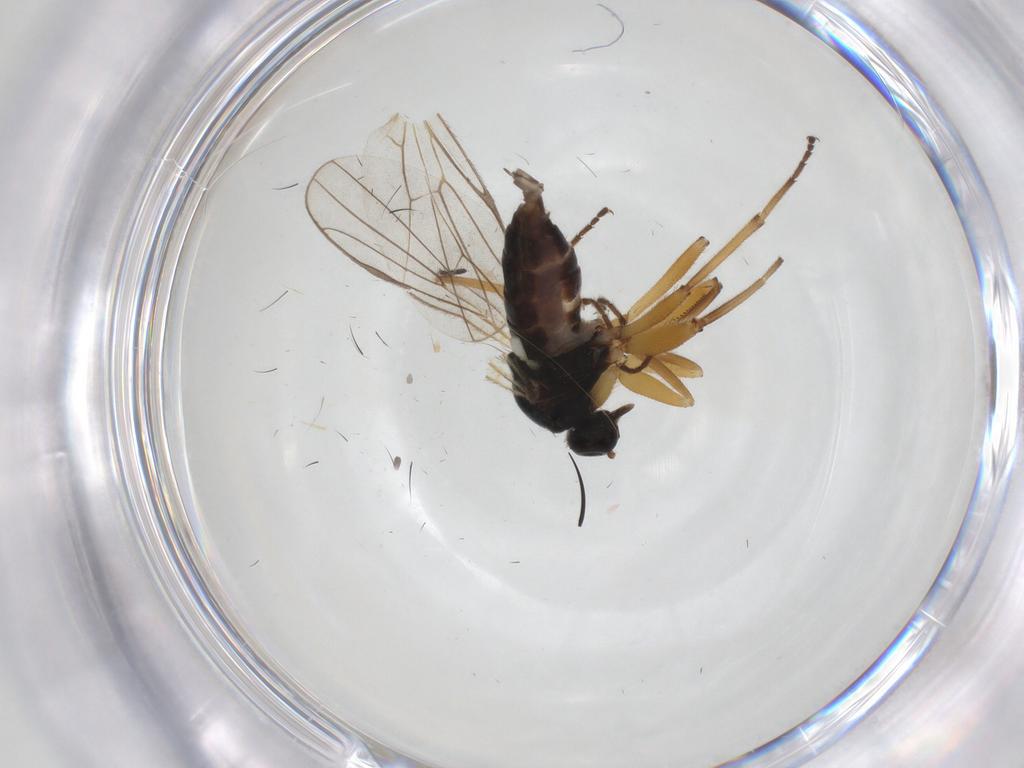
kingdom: Animalia
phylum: Arthropoda
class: Insecta
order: Diptera
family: Hybotidae
